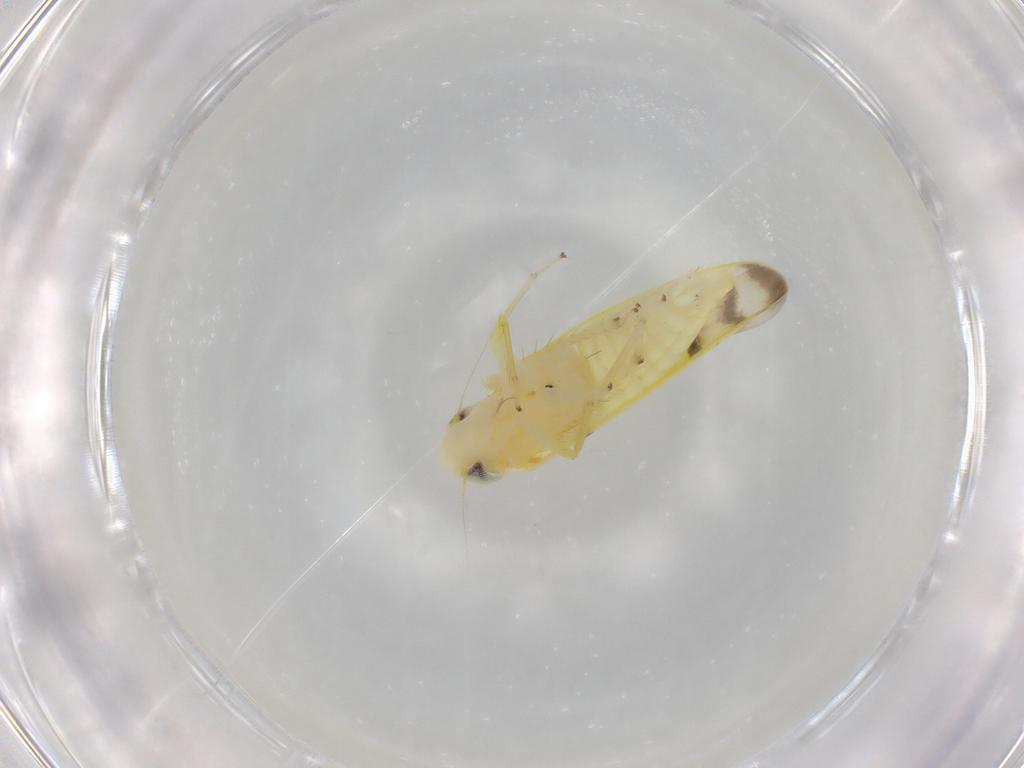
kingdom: Animalia
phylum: Arthropoda
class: Insecta
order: Hemiptera
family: Cicadellidae
